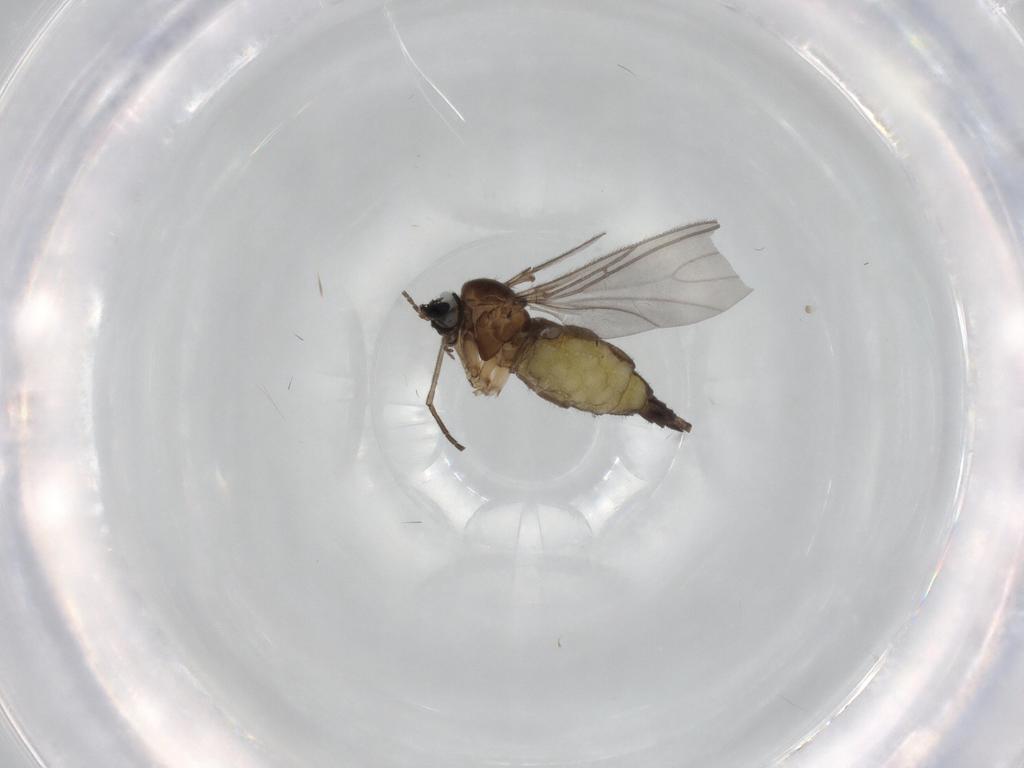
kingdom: Animalia
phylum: Arthropoda
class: Insecta
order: Diptera
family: Sciaridae
